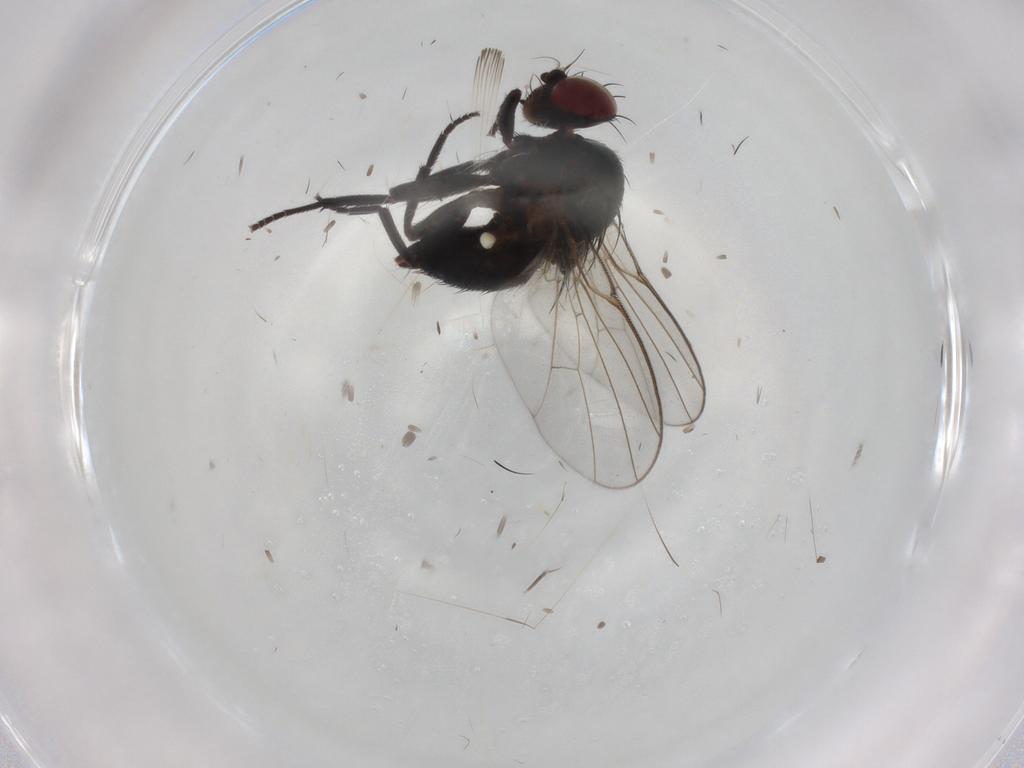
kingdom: Animalia
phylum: Arthropoda
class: Insecta
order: Diptera
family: Agromyzidae
